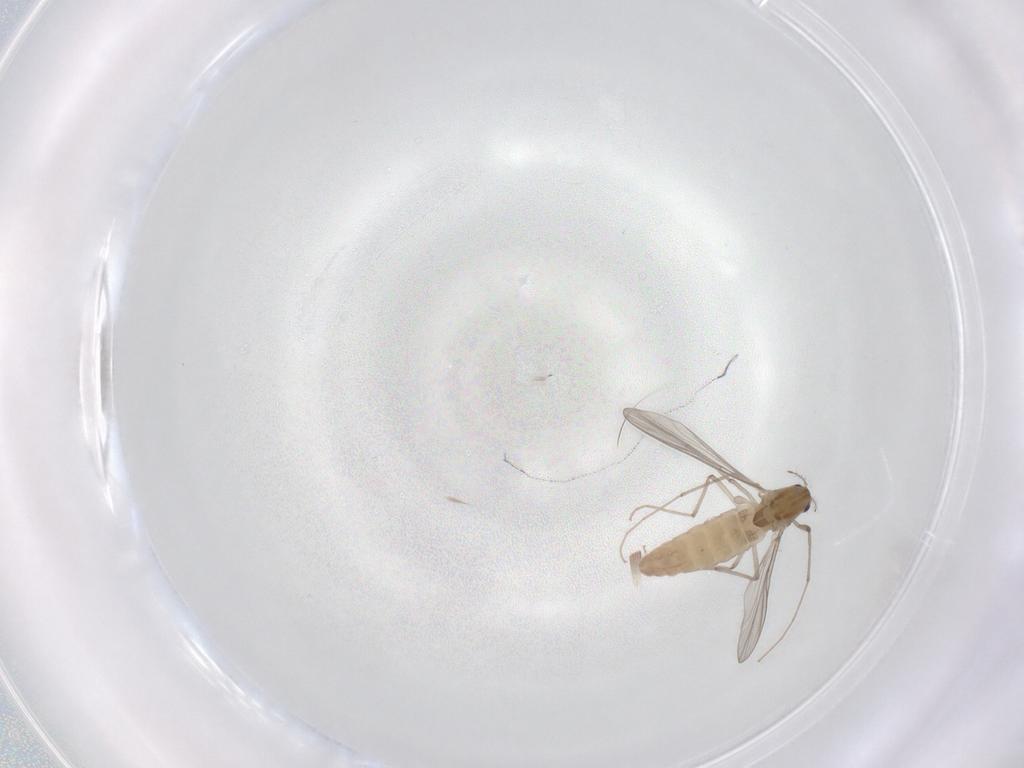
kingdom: Animalia
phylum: Arthropoda
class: Insecta
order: Diptera
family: Chironomidae
